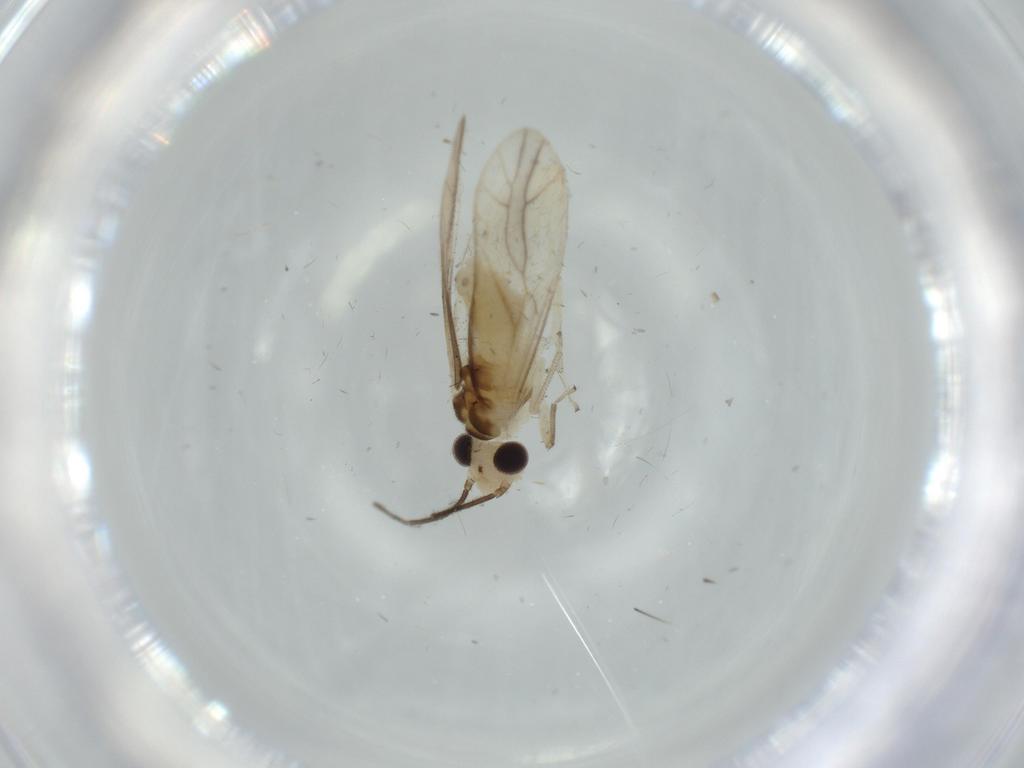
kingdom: Animalia
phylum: Arthropoda
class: Insecta
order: Psocodea
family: Caeciliusidae
